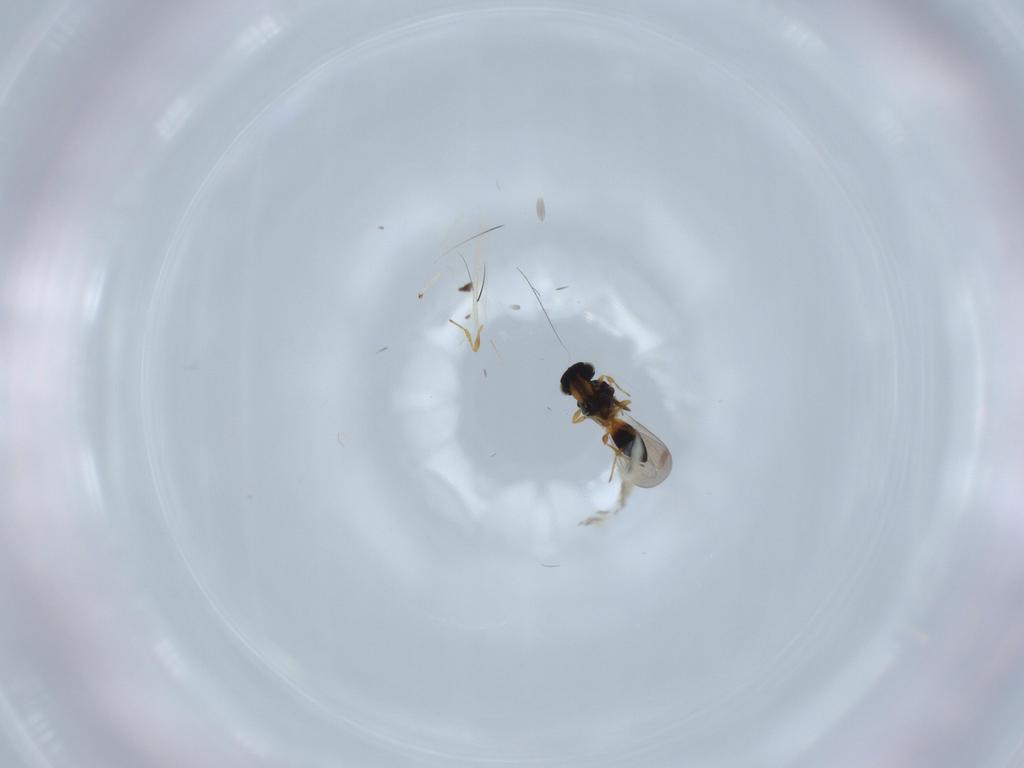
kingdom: Animalia
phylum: Arthropoda
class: Insecta
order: Hymenoptera
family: Platygastridae
